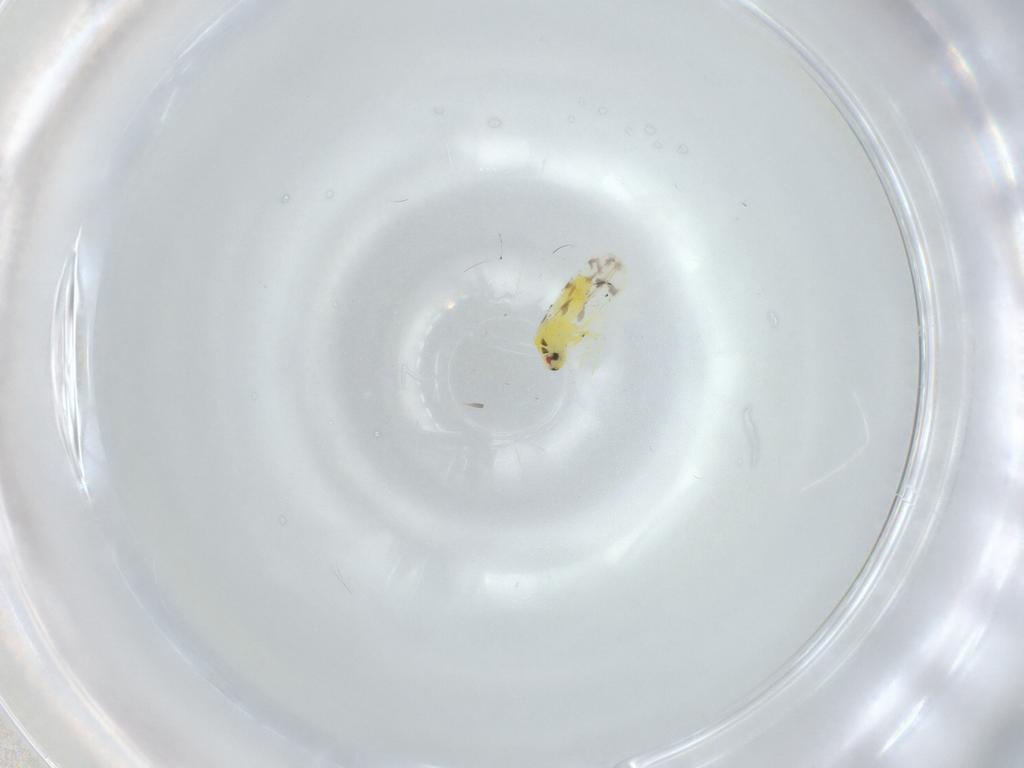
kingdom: Animalia
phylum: Arthropoda
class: Insecta
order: Hemiptera
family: Aleyrodidae
